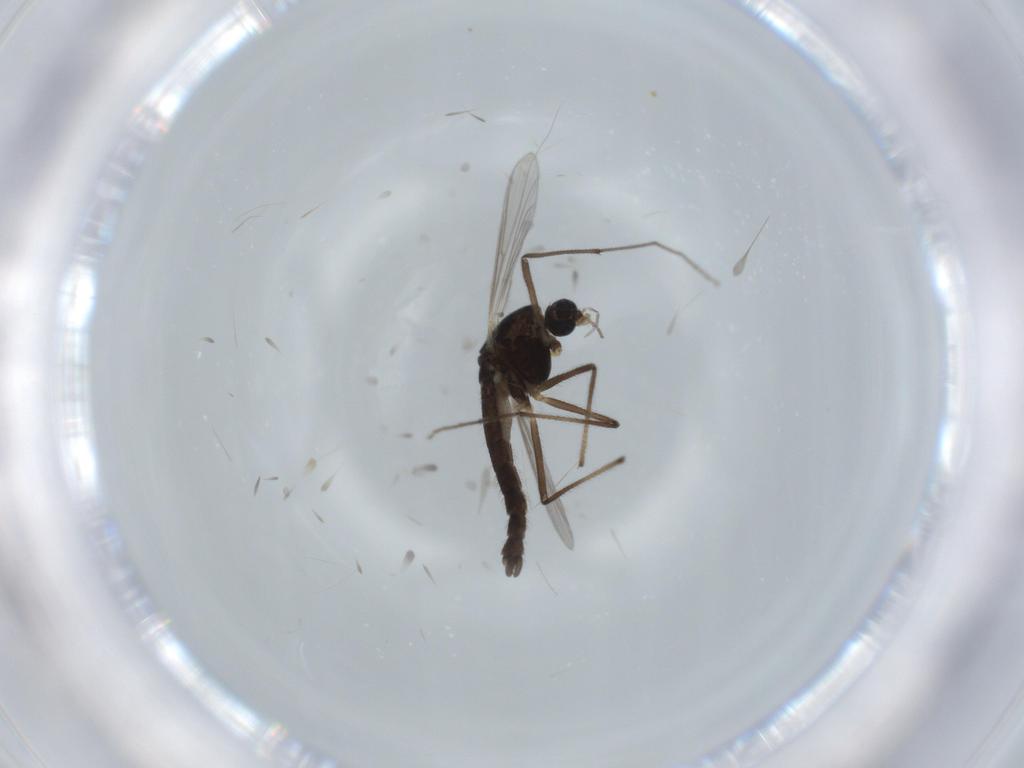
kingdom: Animalia
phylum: Arthropoda
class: Insecta
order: Diptera
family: Chironomidae
